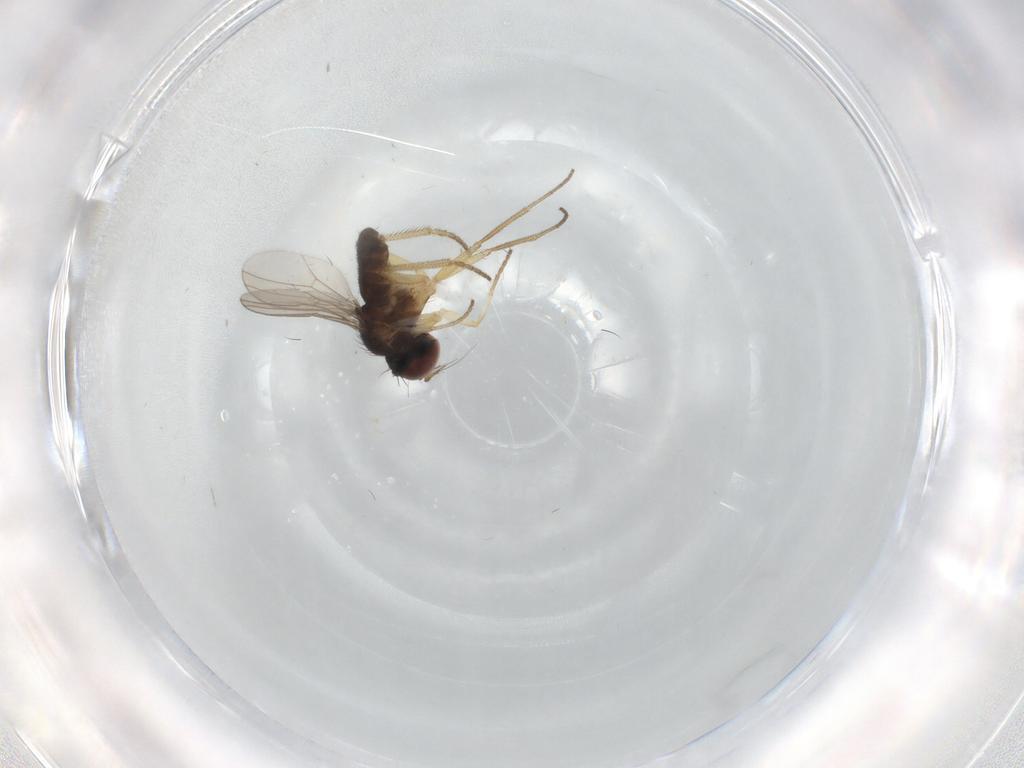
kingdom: Animalia
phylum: Arthropoda
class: Insecta
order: Diptera
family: Dolichopodidae
